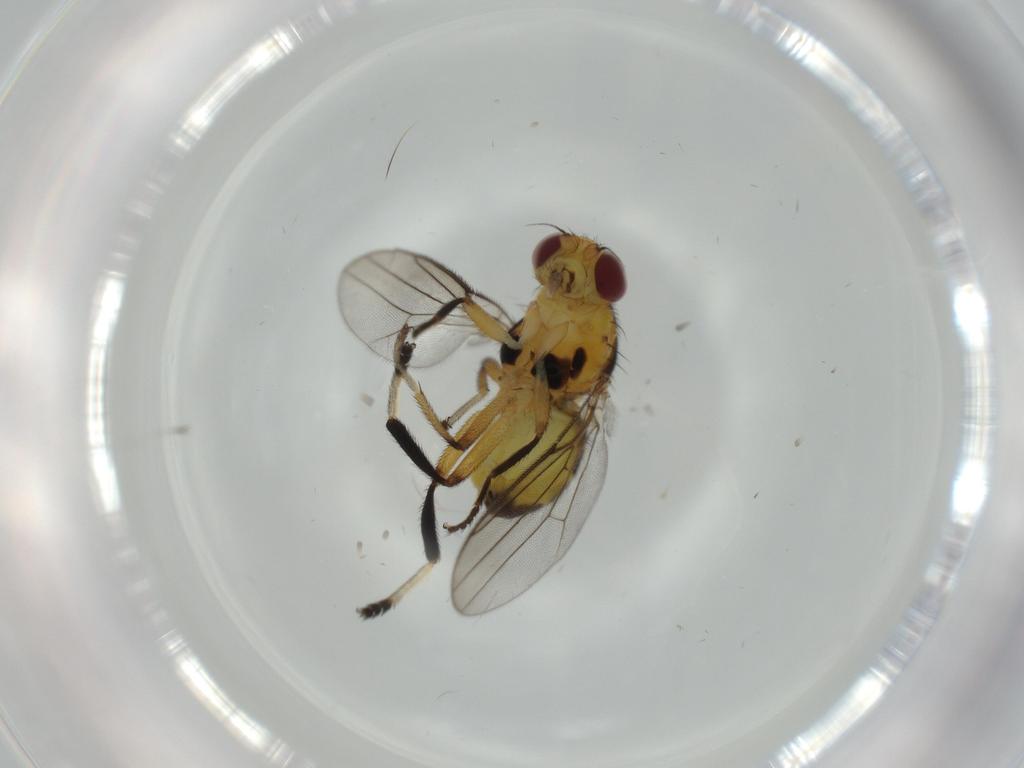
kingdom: Animalia
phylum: Arthropoda
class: Insecta
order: Diptera
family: Chloropidae
